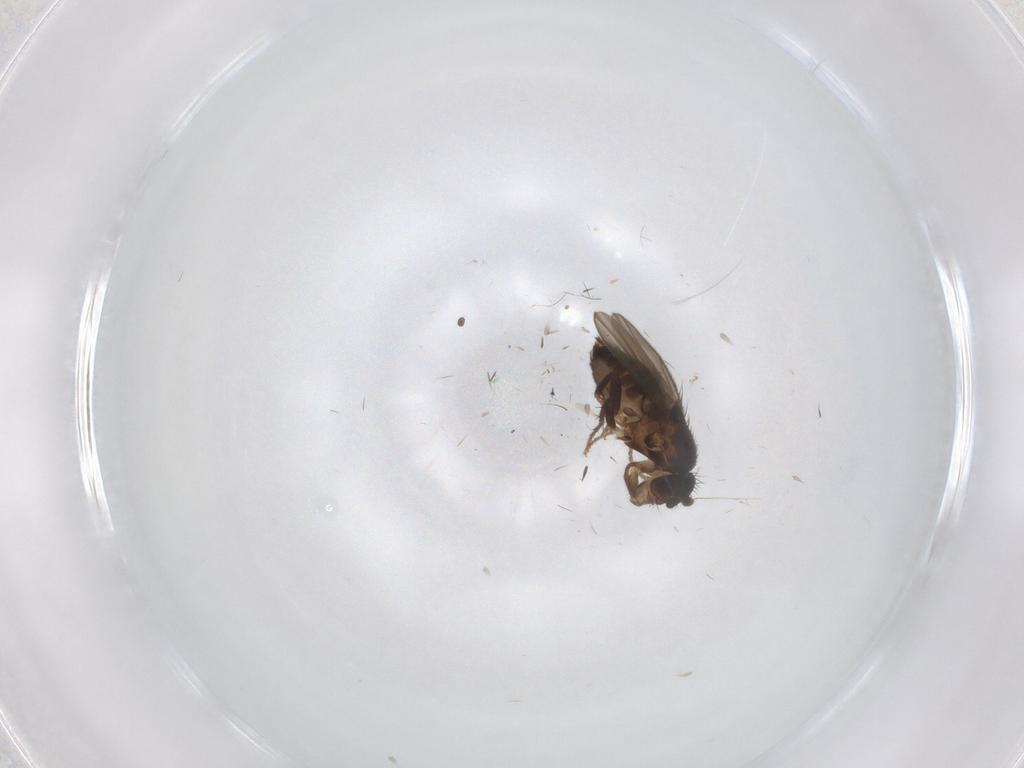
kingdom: Animalia
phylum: Arthropoda
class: Insecta
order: Diptera
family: Sphaeroceridae
